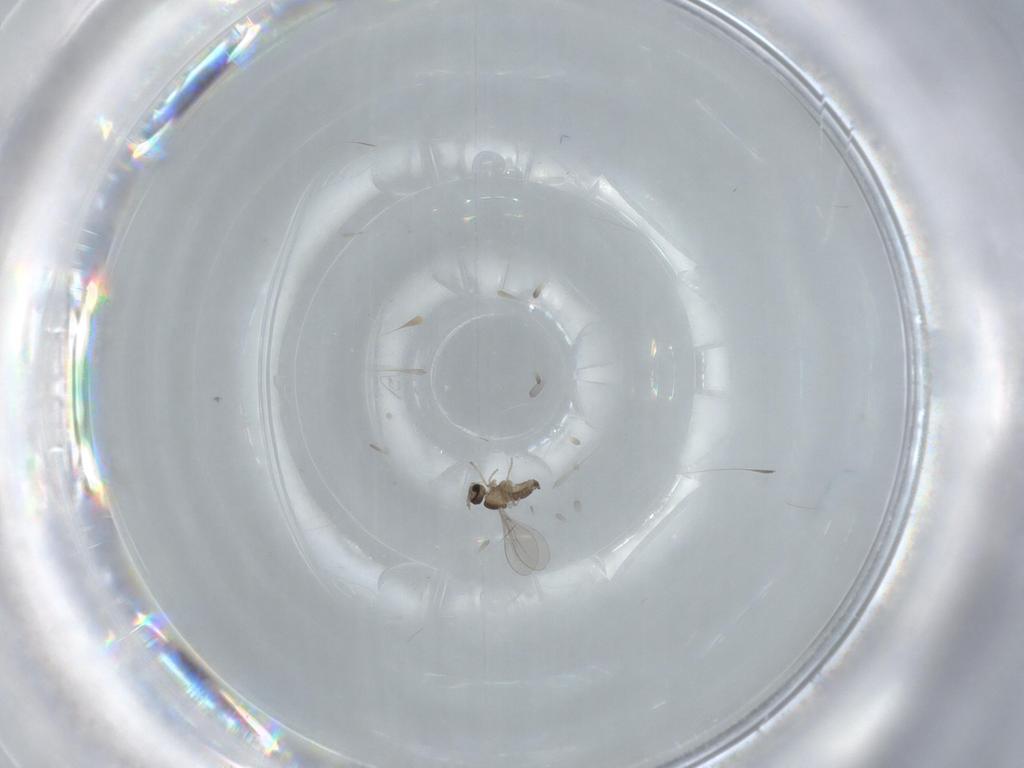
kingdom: Animalia
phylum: Arthropoda
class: Insecta
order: Diptera
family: Cecidomyiidae
